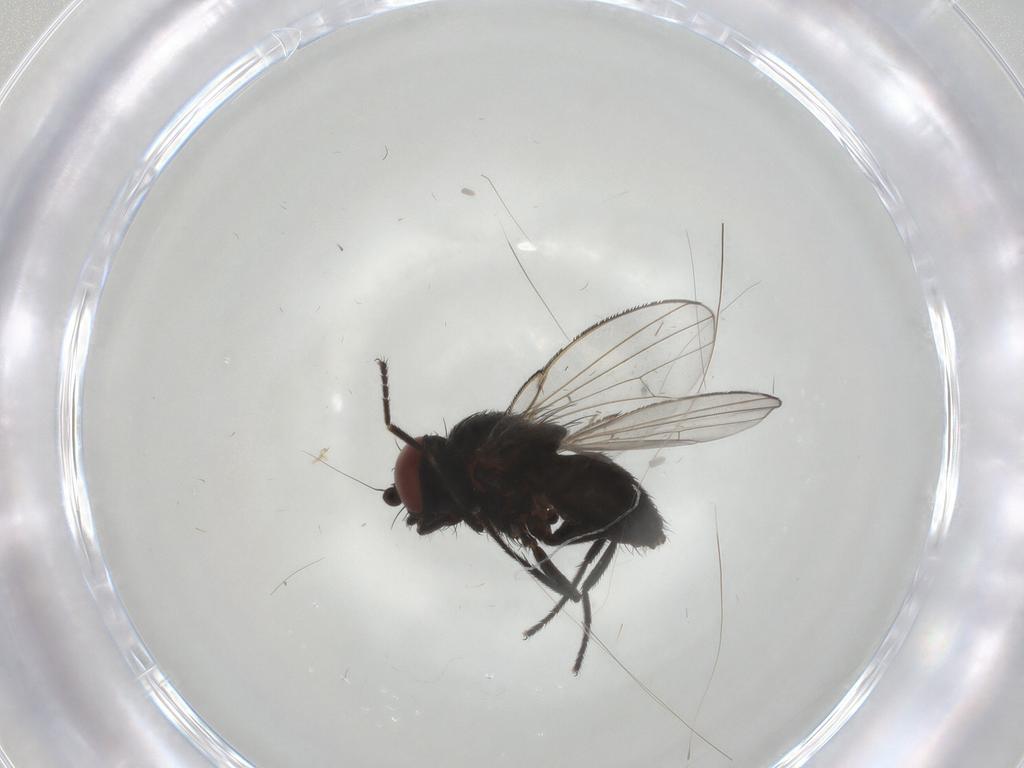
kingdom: Animalia
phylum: Arthropoda
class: Insecta
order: Diptera
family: Milichiidae
